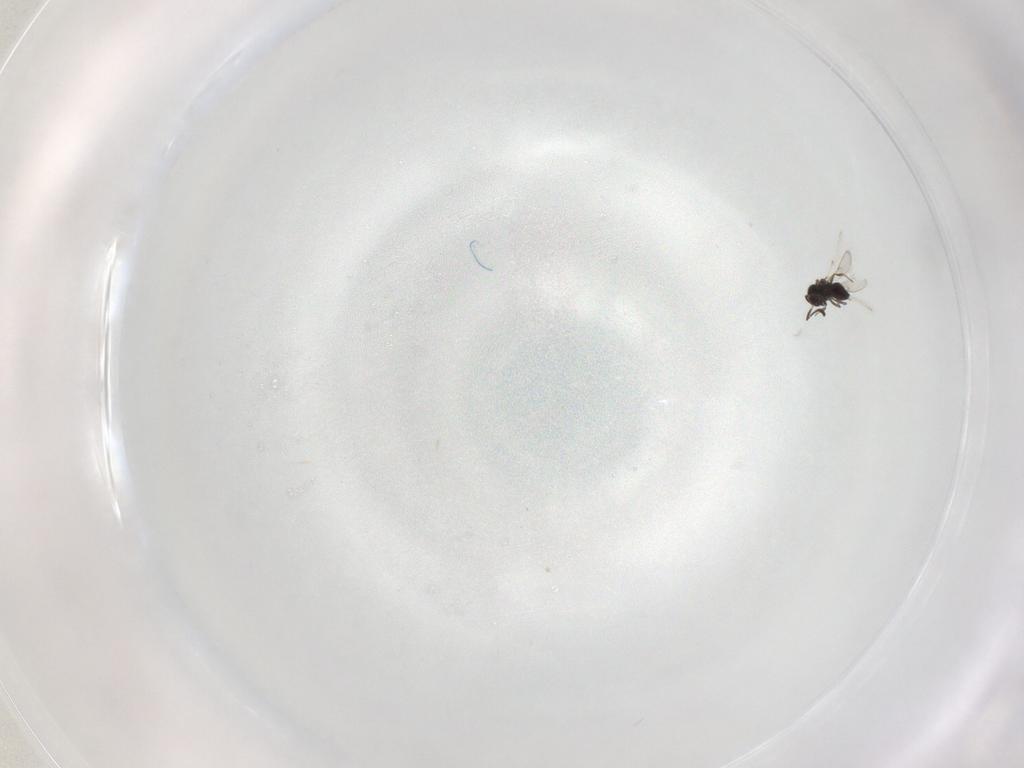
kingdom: Animalia
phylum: Arthropoda
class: Insecta
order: Hymenoptera
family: Scelionidae
